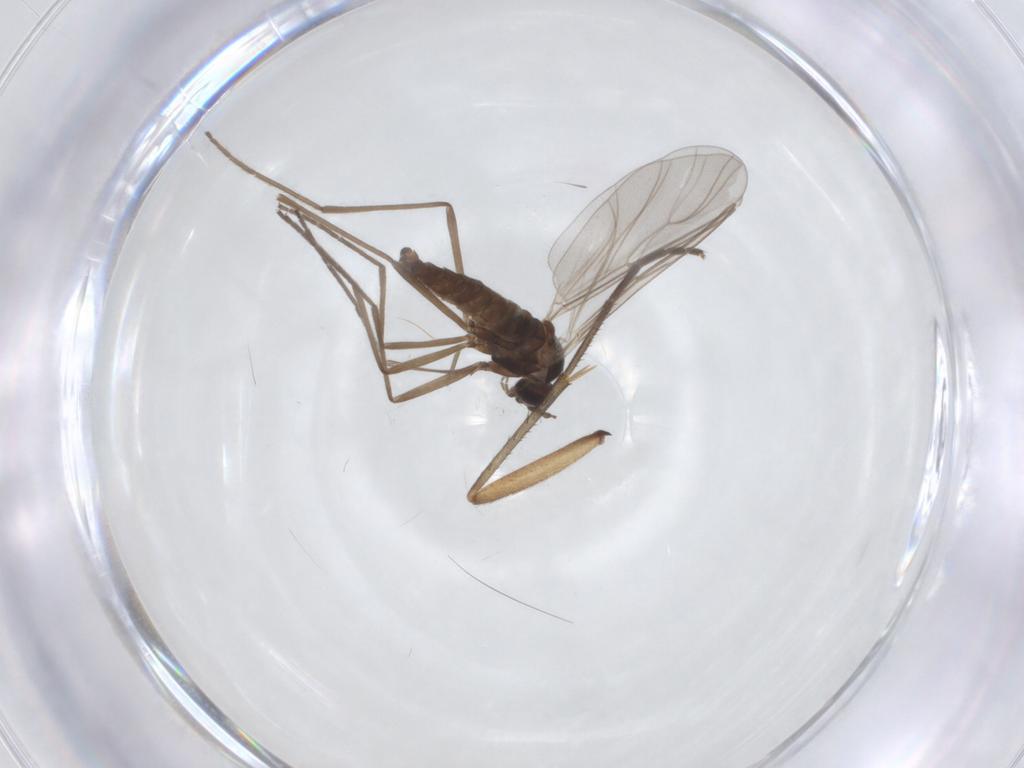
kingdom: Animalia
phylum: Arthropoda
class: Insecta
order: Diptera
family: Cecidomyiidae
